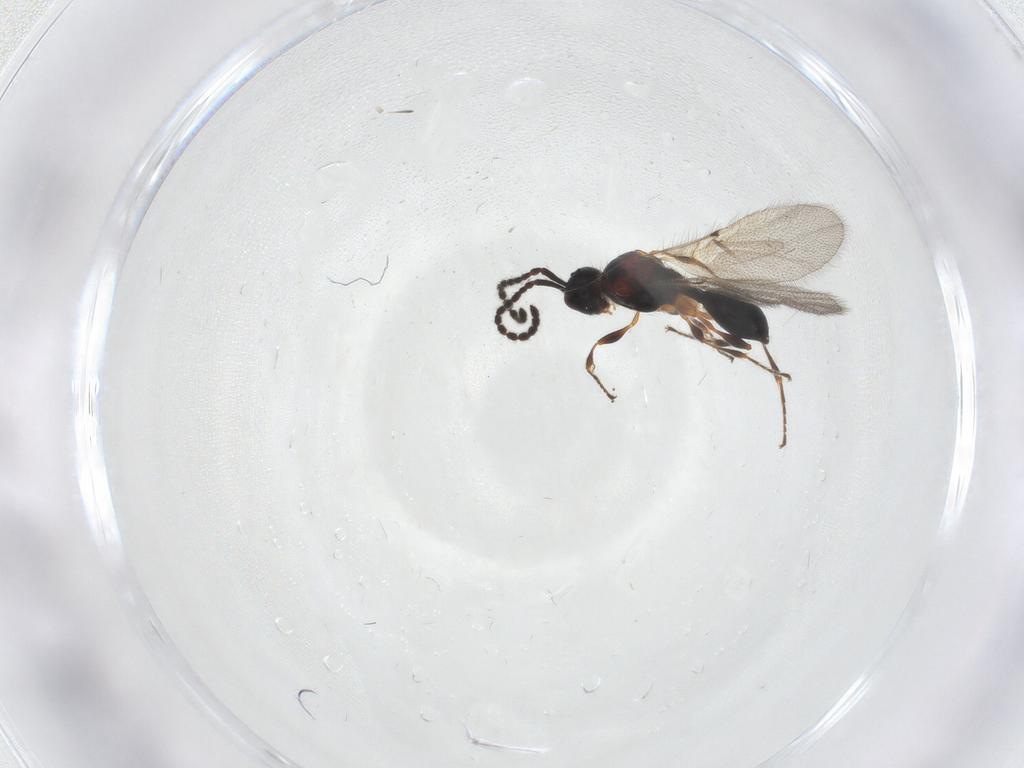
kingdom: Animalia
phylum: Arthropoda
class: Insecta
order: Hymenoptera
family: Diapriidae
